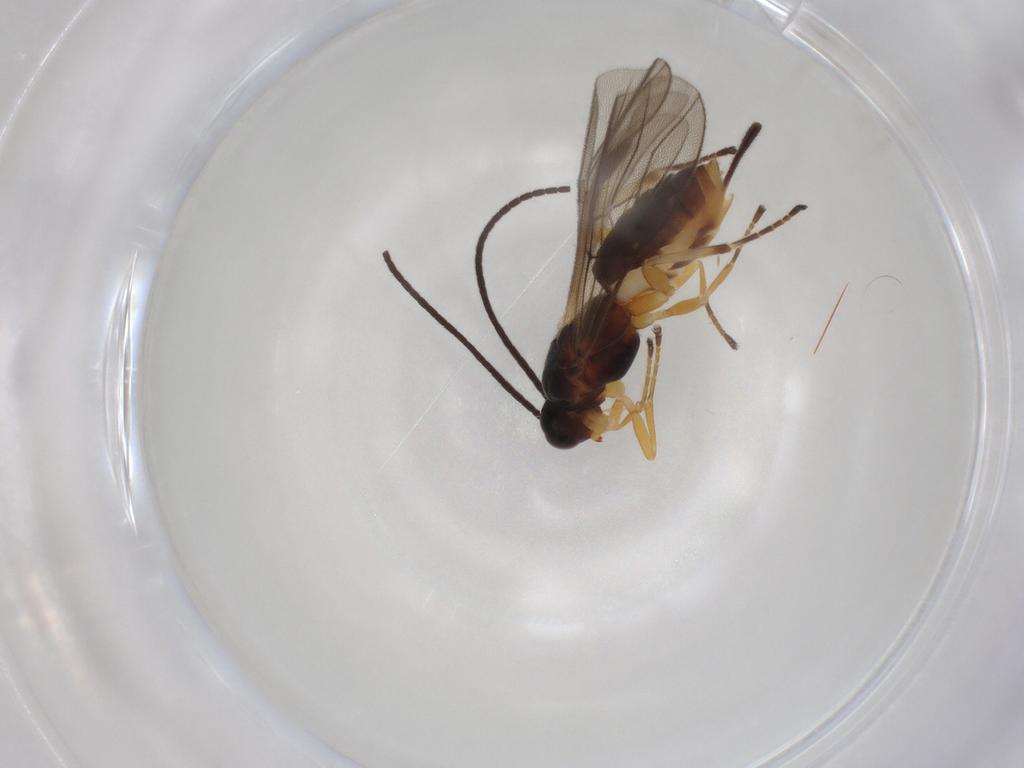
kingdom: Animalia
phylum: Arthropoda
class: Insecta
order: Hymenoptera
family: Braconidae
